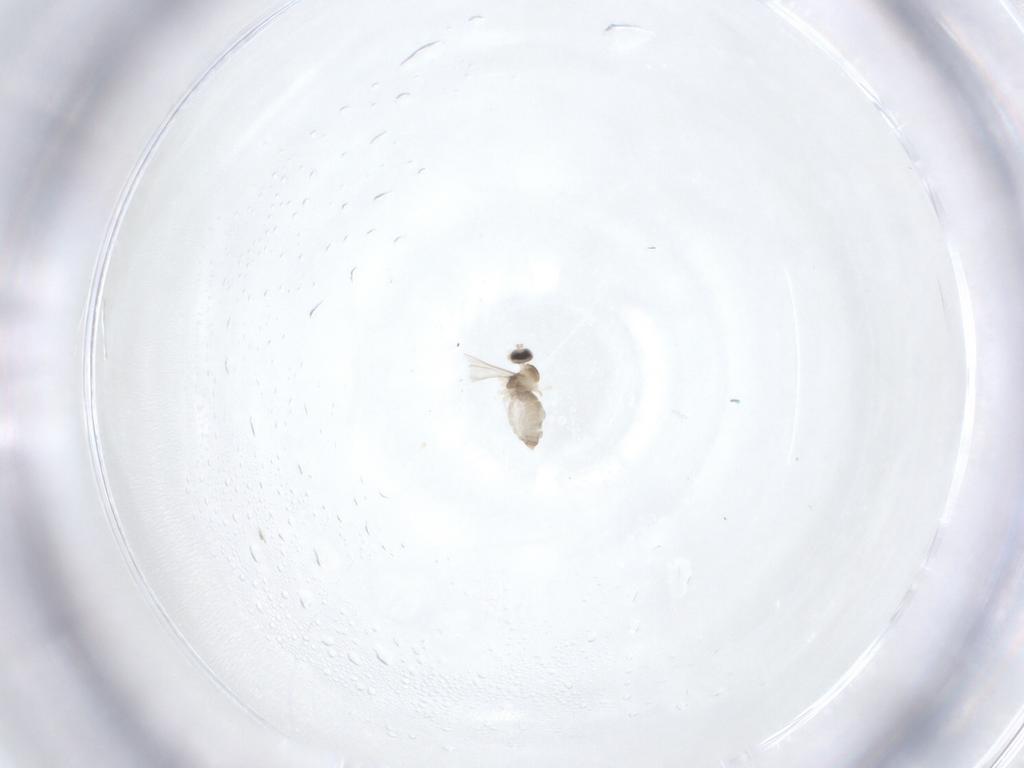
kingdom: Animalia
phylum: Arthropoda
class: Insecta
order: Diptera
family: Cecidomyiidae
